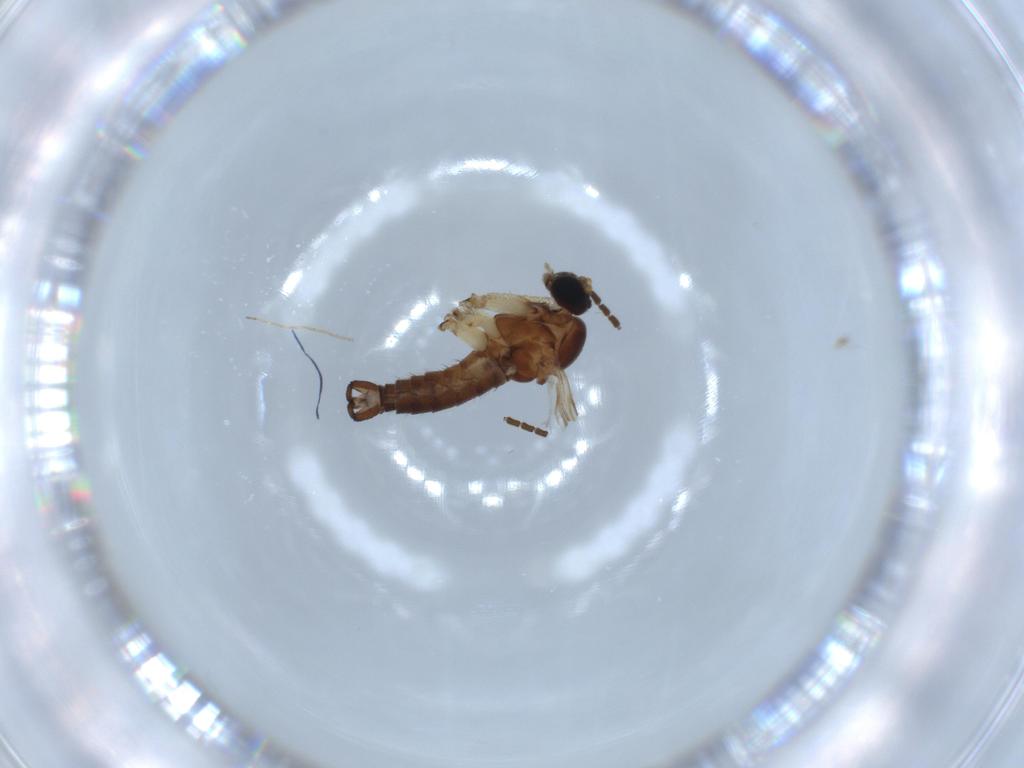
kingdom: Animalia
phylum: Arthropoda
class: Insecta
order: Diptera
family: Sciaridae
